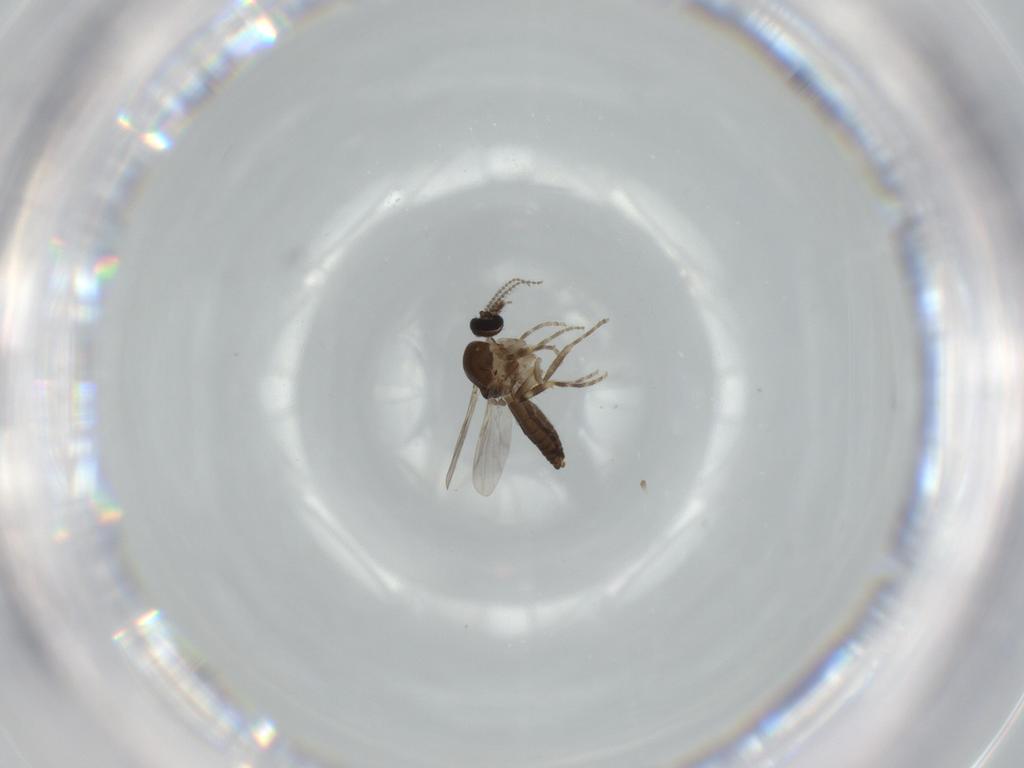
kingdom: Animalia
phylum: Arthropoda
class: Insecta
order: Diptera
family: Ceratopogonidae
